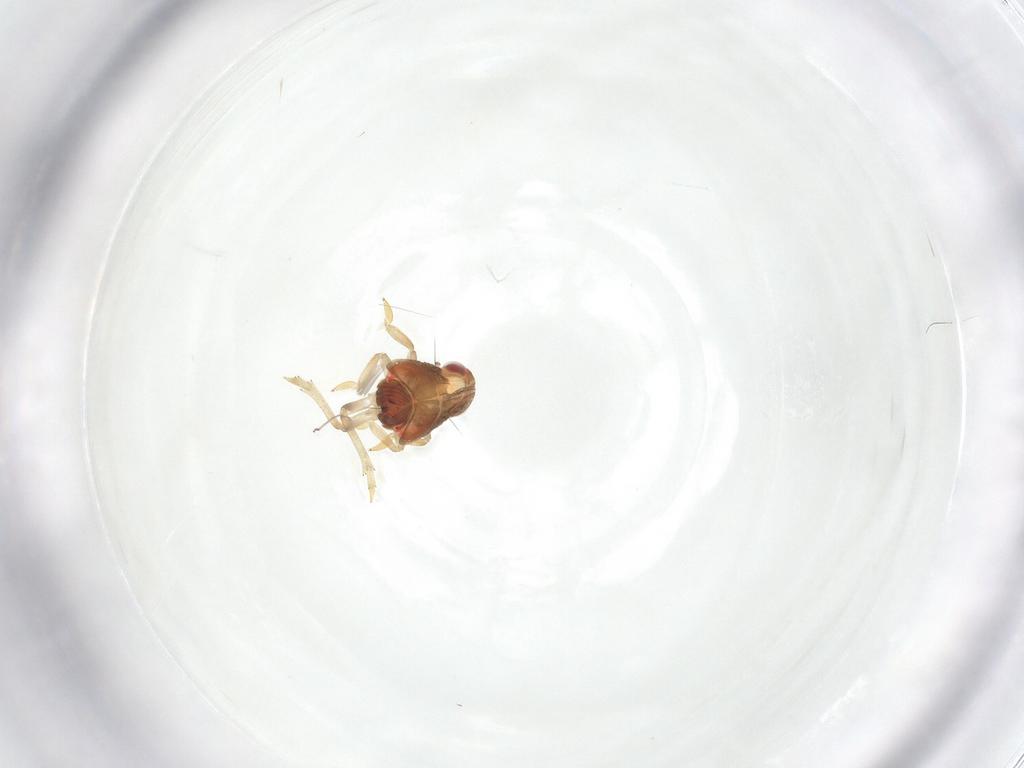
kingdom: Animalia
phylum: Arthropoda
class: Insecta
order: Hemiptera
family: Issidae
